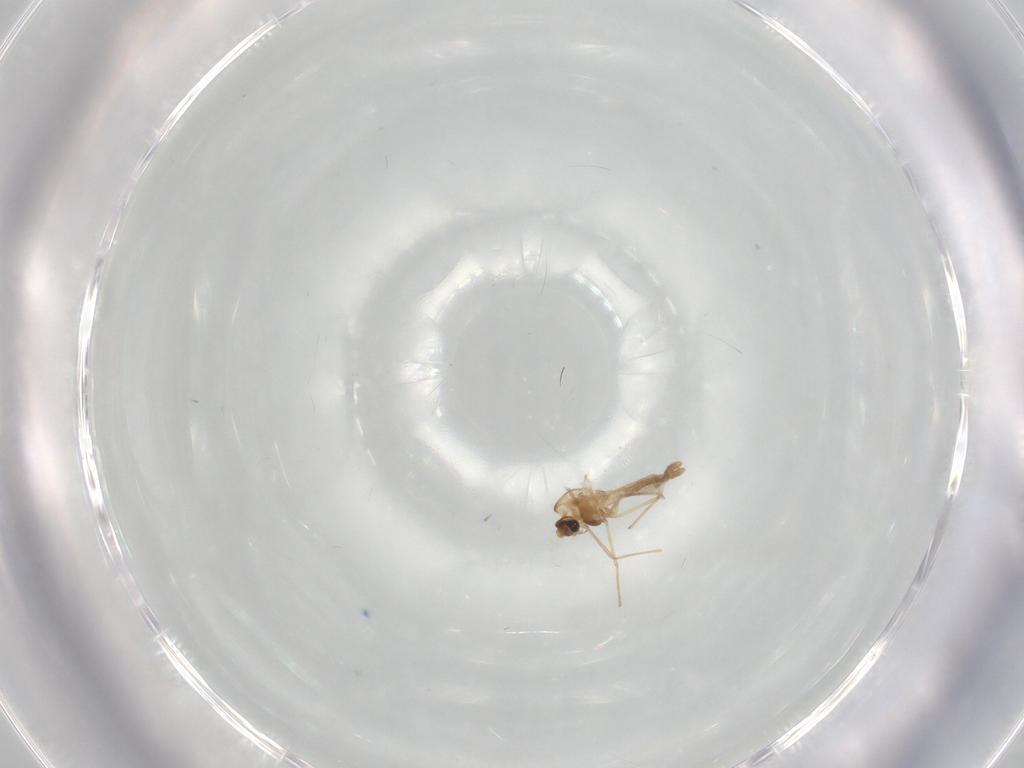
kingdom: Animalia
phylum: Arthropoda
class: Insecta
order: Diptera
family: Chironomidae
